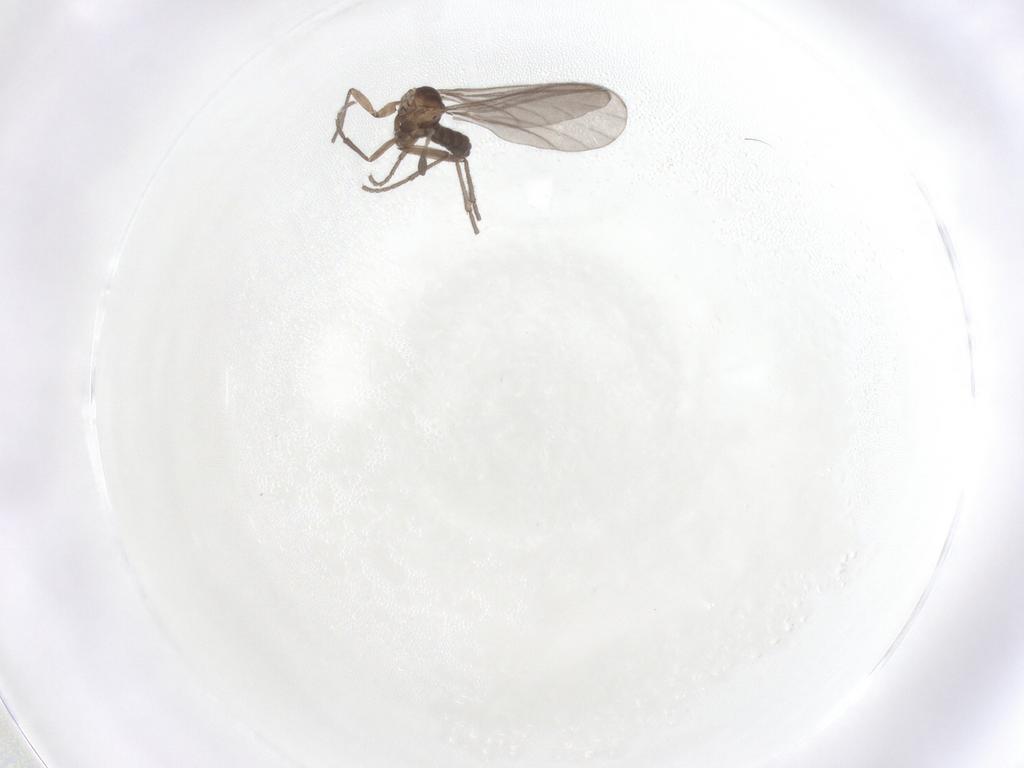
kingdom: Animalia
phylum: Arthropoda
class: Insecta
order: Diptera
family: Sciaridae
